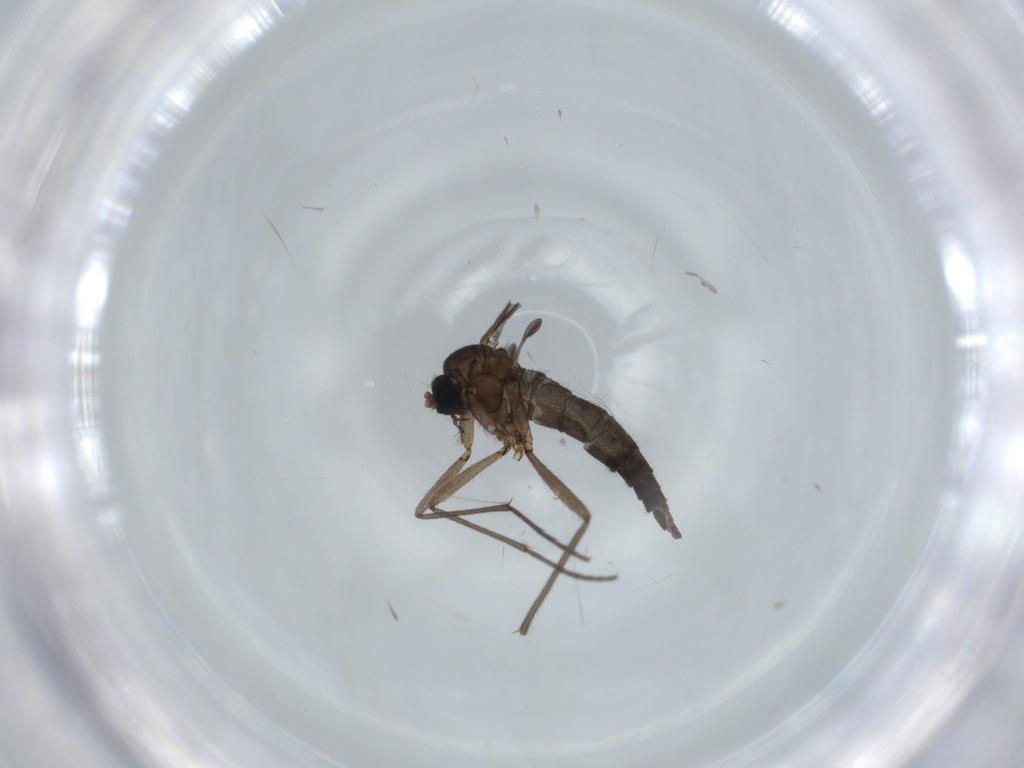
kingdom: Animalia
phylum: Arthropoda
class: Insecta
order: Diptera
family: Sciaridae
